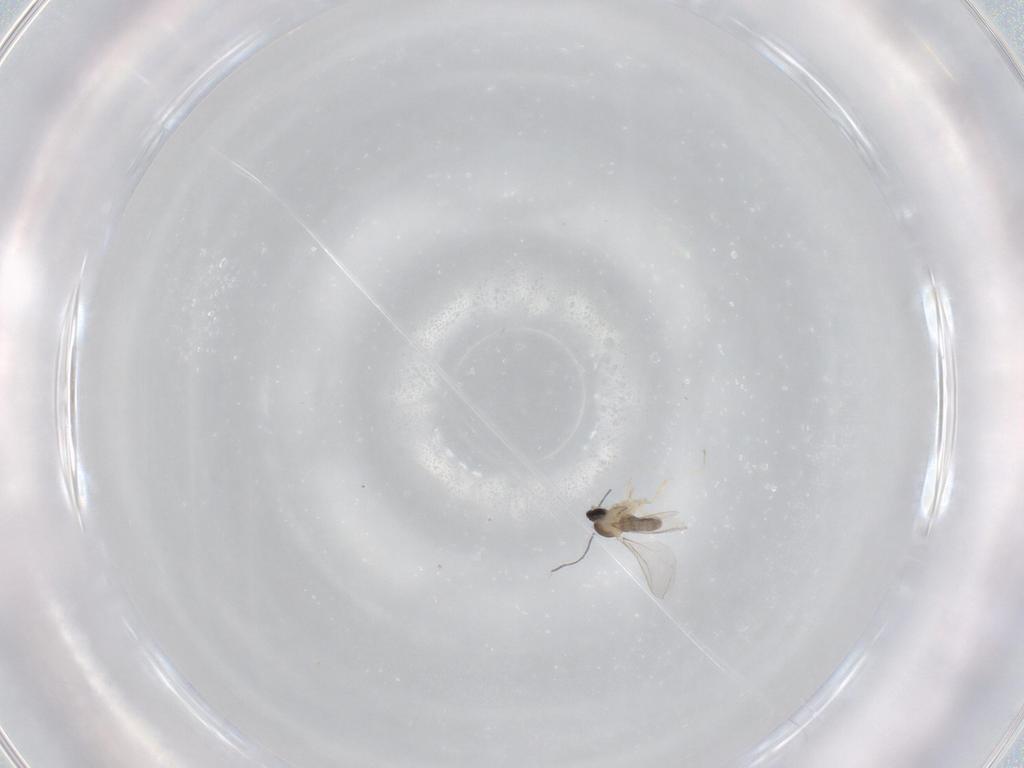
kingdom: Animalia
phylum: Arthropoda
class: Insecta
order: Diptera
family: Cecidomyiidae
